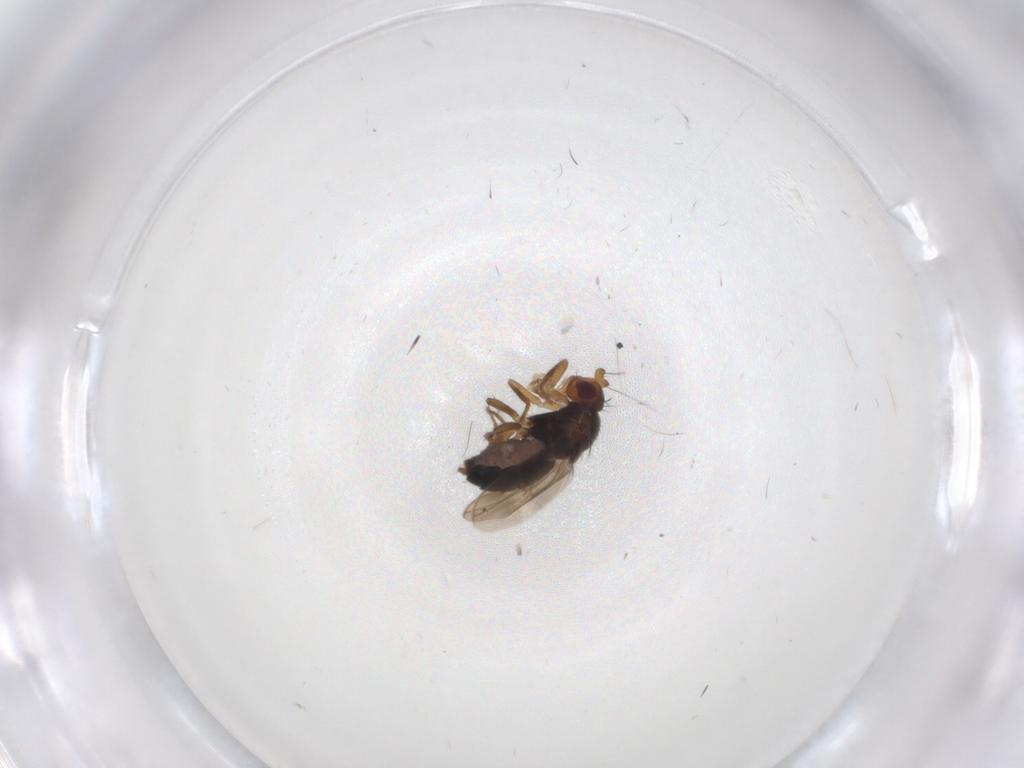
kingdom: Animalia
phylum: Arthropoda
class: Insecta
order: Diptera
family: Sphaeroceridae
